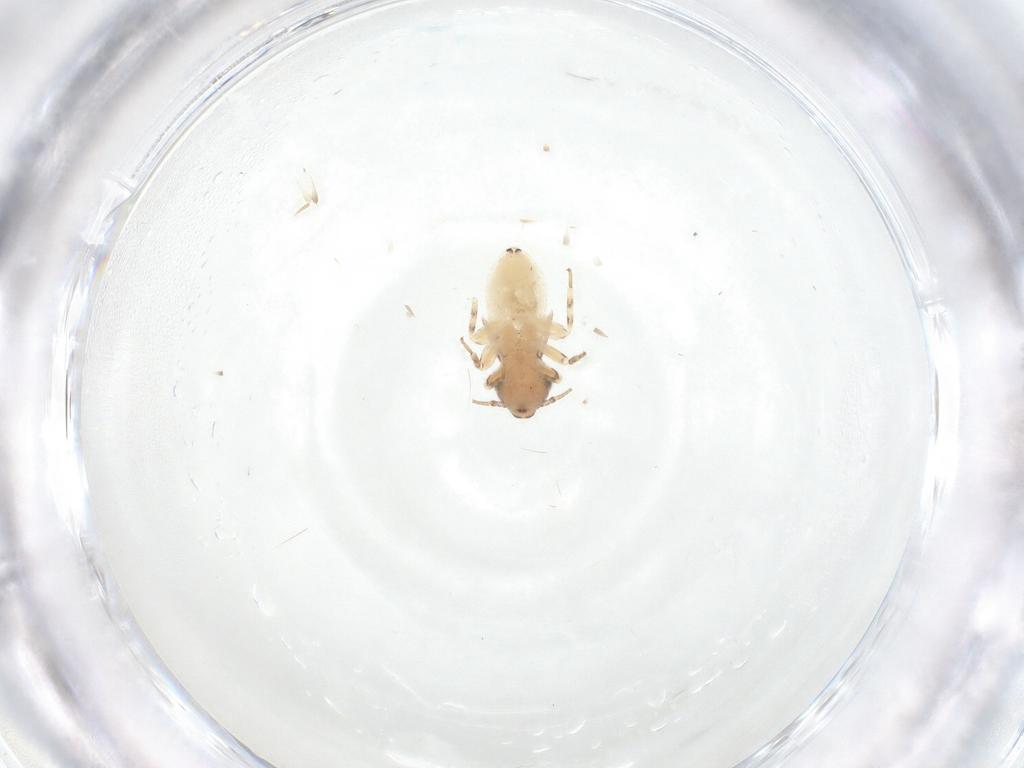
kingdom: Animalia
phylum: Arthropoda
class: Insecta
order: Psocodea
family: Lepidopsocidae
